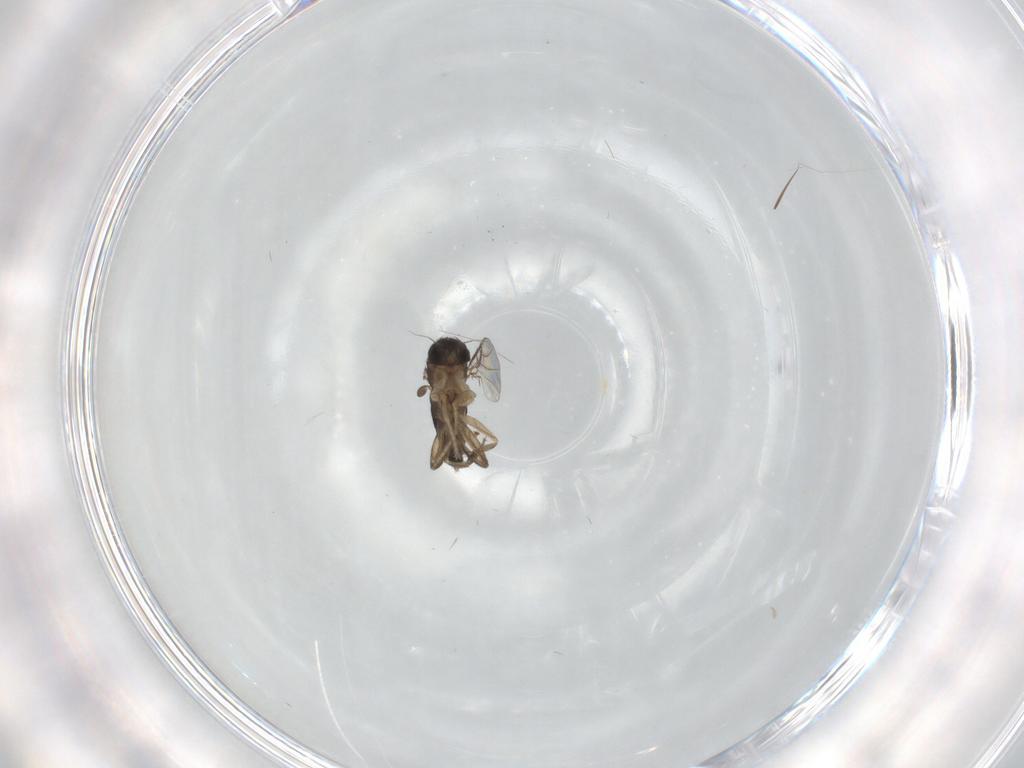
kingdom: Animalia
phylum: Arthropoda
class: Insecta
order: Diptera
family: Phoridae
